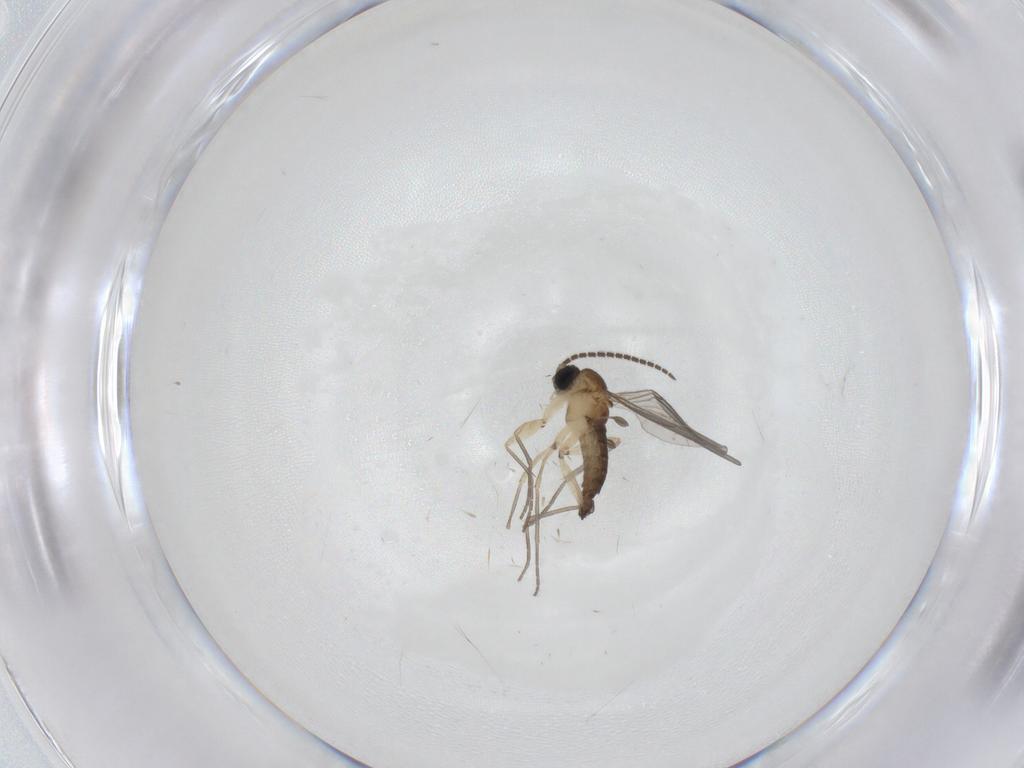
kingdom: Animalia
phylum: Arthropoda
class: Insecta
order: Diptera
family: Sciaridae
